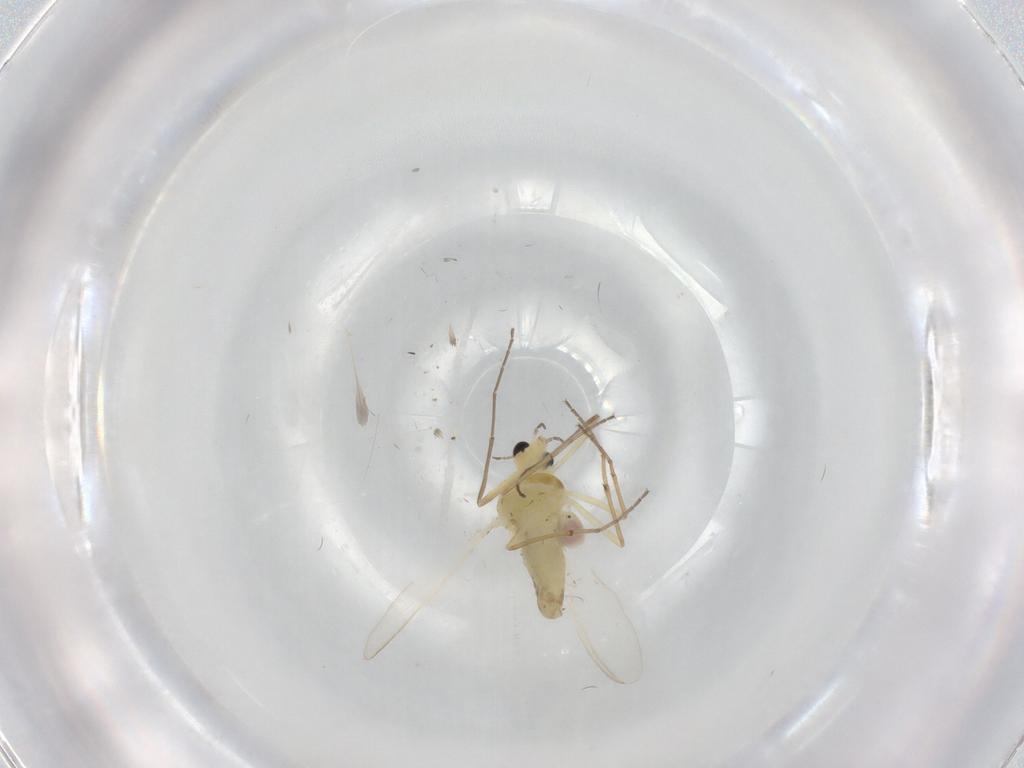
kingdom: Animalia
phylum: Arthropoda
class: Insecta
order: Diptera
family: Chironomidae
